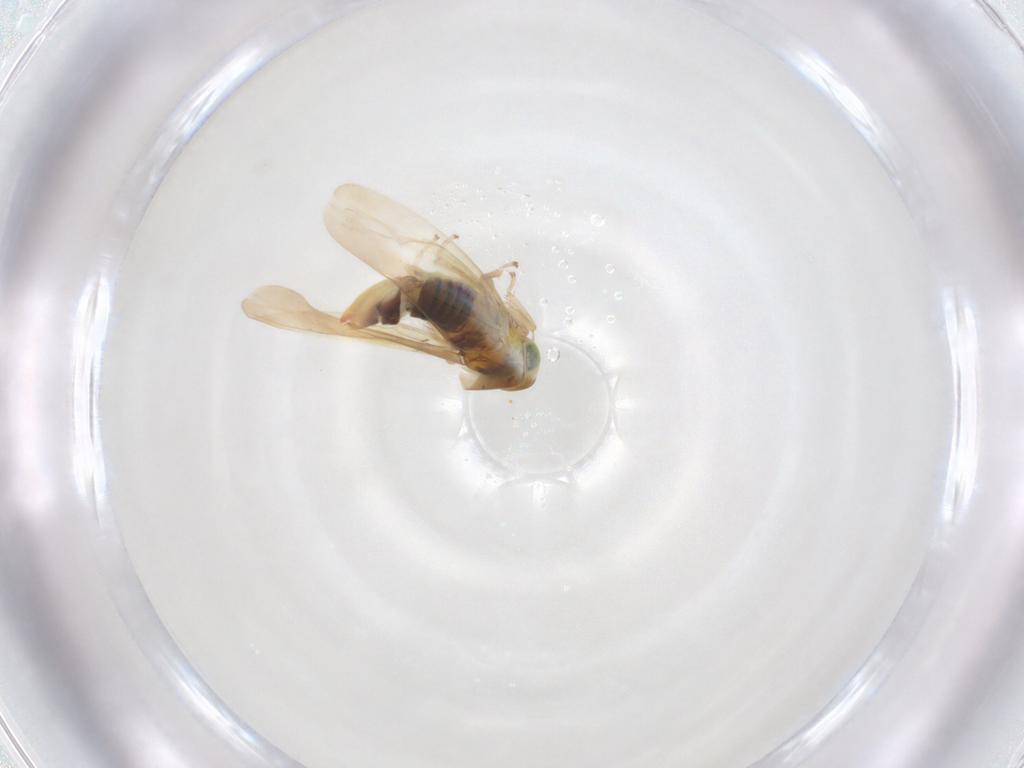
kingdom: Animalia
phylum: Arthropoda
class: Insecta
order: Hemiptera
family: Cicadellidae
